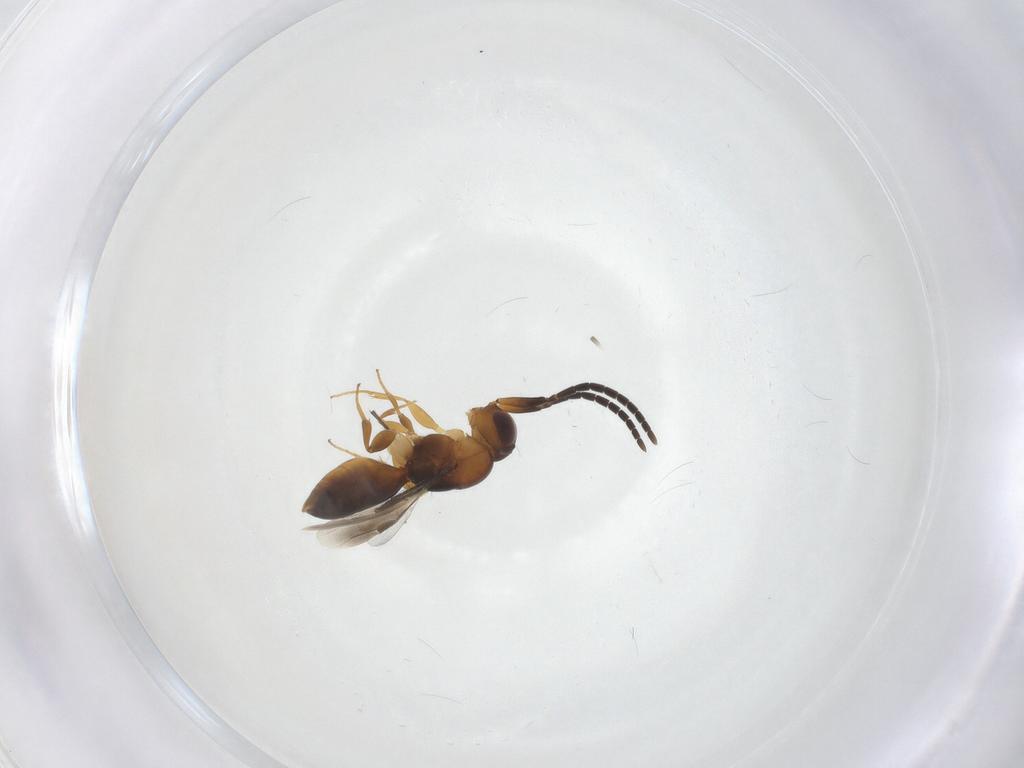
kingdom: Animalia
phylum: Arthropoda
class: Insecta
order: Hymenoptera
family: Megaspilidae
